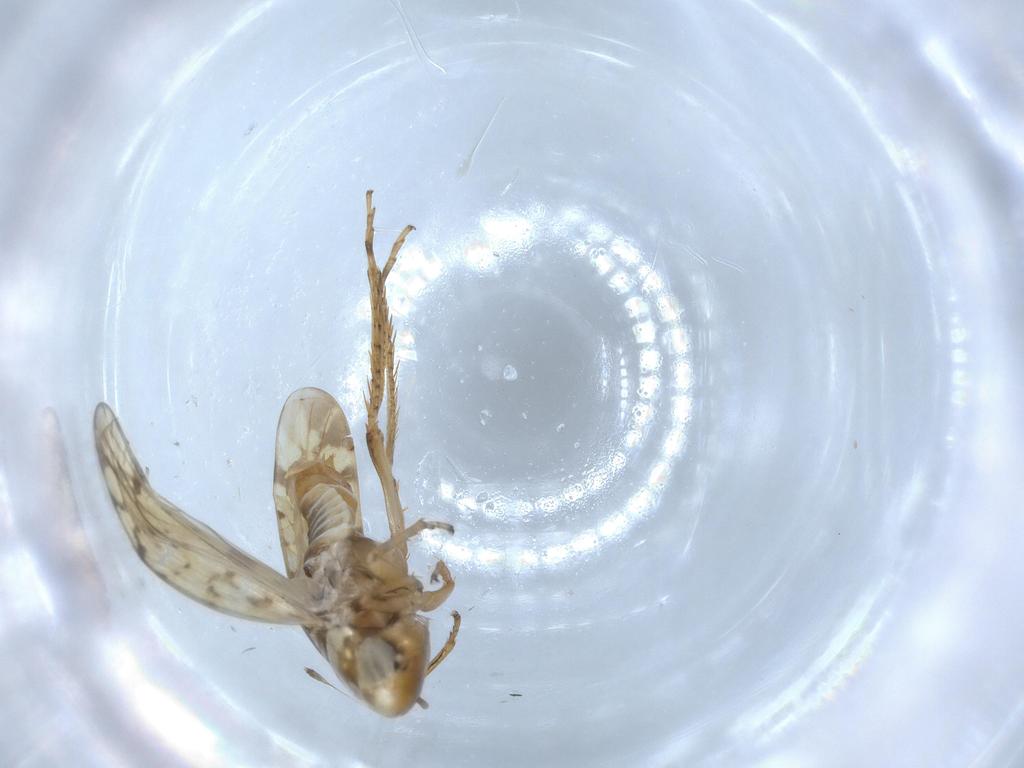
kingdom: Animalia
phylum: Arthropoda
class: Insecta
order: Hemiptera
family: Cicadellidae
